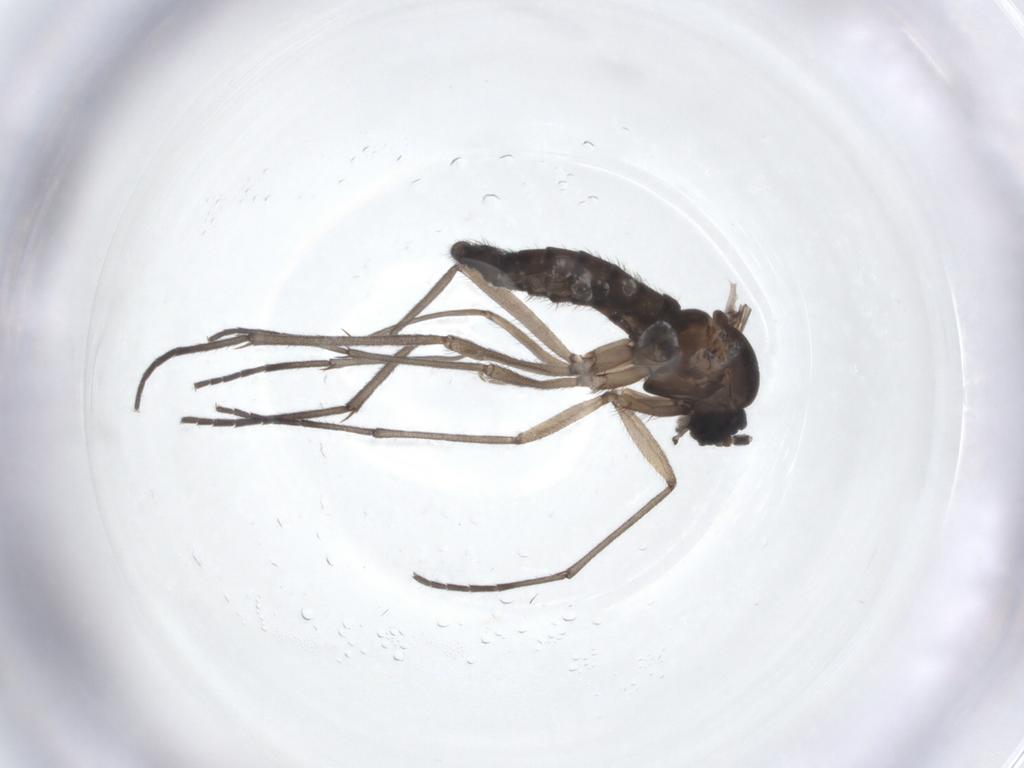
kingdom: Animalia
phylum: Arthropoda
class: Insecta
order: Diptera
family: Sciaridae
